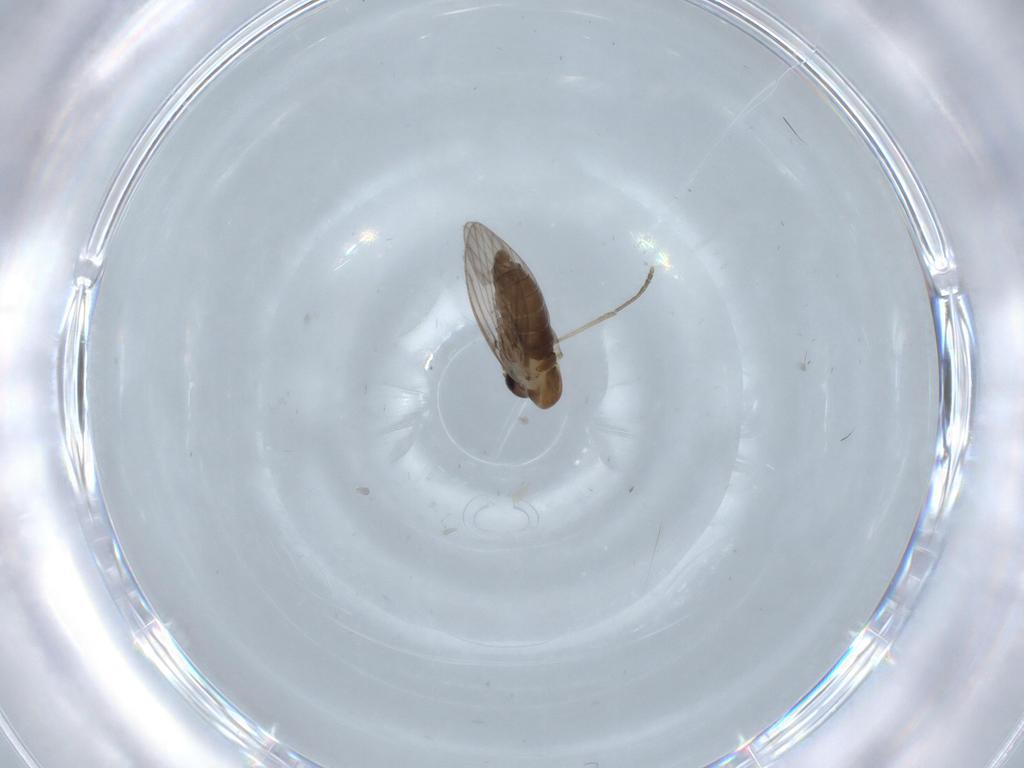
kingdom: Animalia
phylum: Arthropoda
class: Insecta
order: Diptera
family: Psychodidae
